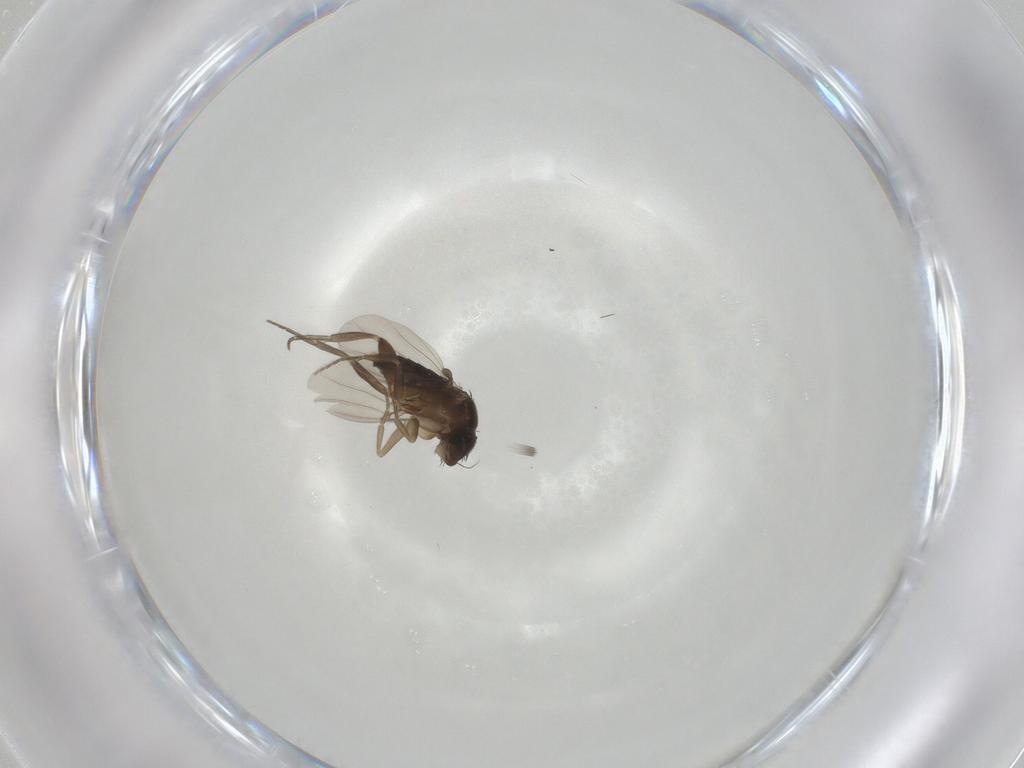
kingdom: Animalia
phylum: Arthropoda
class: Insecta
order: Diptera
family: Phoridae
